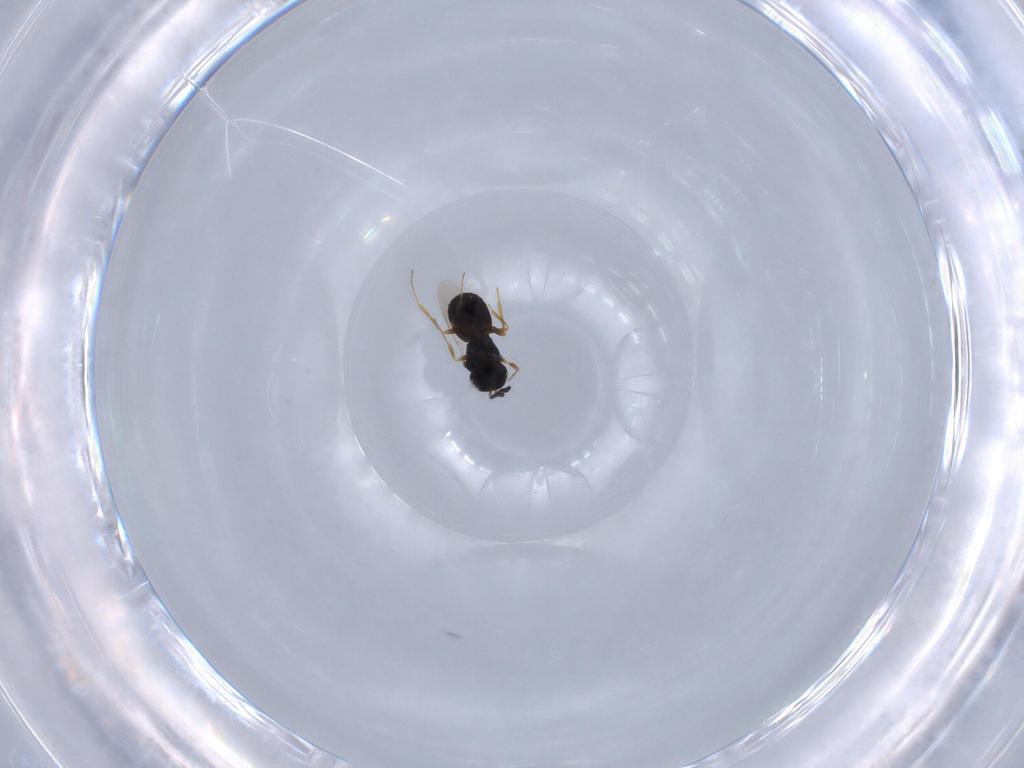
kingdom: Animalia
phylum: Arthropoda
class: Insecta
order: Hymenoptera
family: Scelionidae
